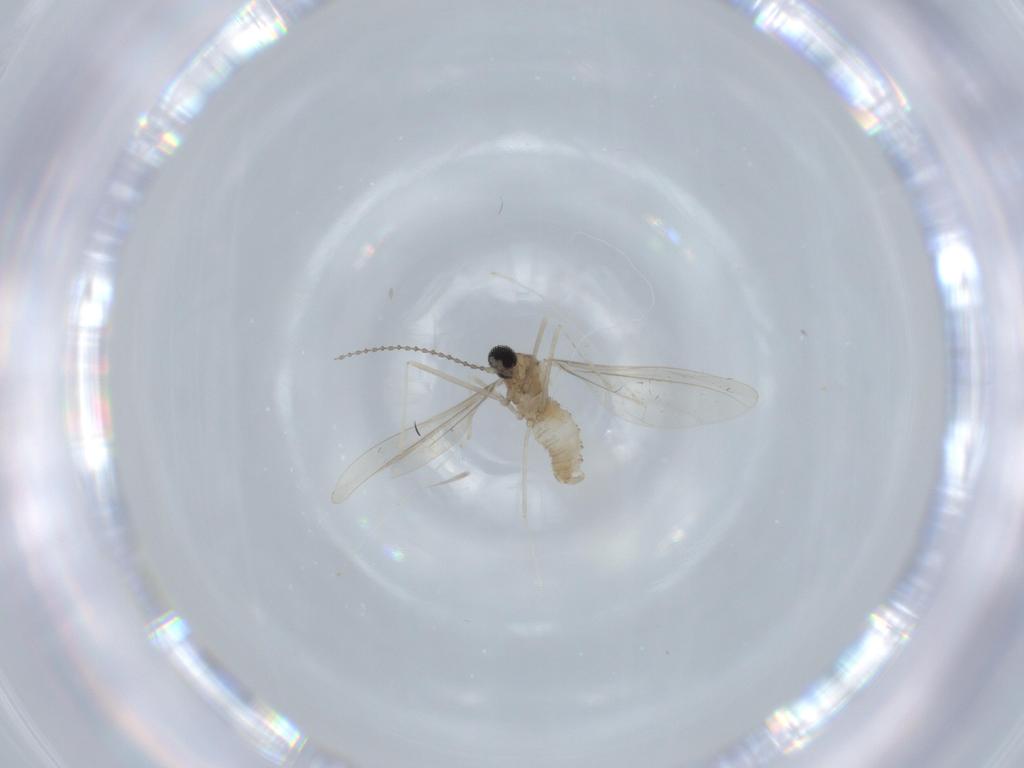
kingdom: Animalia
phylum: Arthropoda
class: Insecta
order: Diptera
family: Cecidomyiidae
